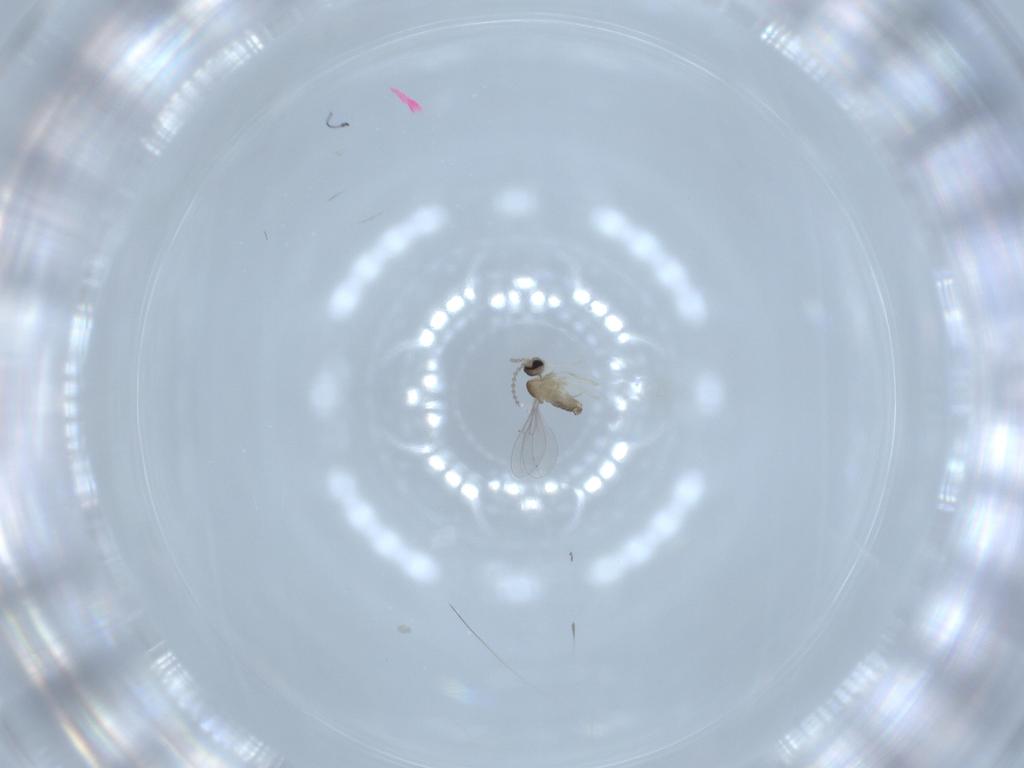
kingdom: Animalia
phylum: Arthropoda
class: Insecta
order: Diptera
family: Cecidomyiidae
